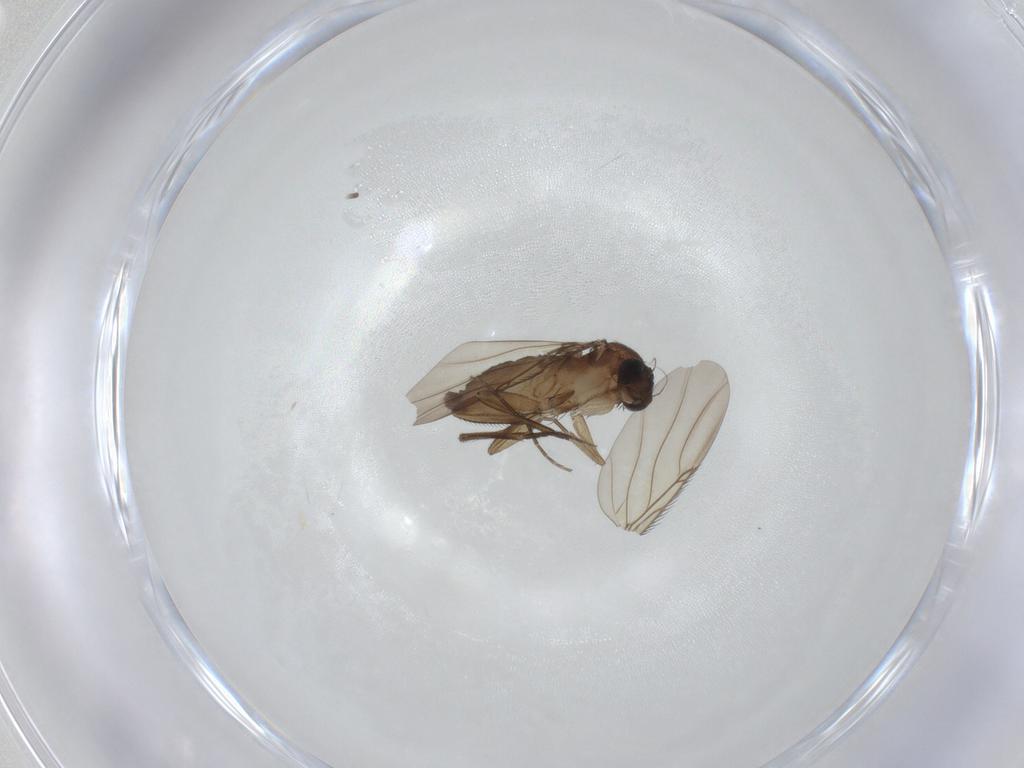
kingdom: Animalia
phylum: Arthropoda
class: Insecta
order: Diptera
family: Phoridae
